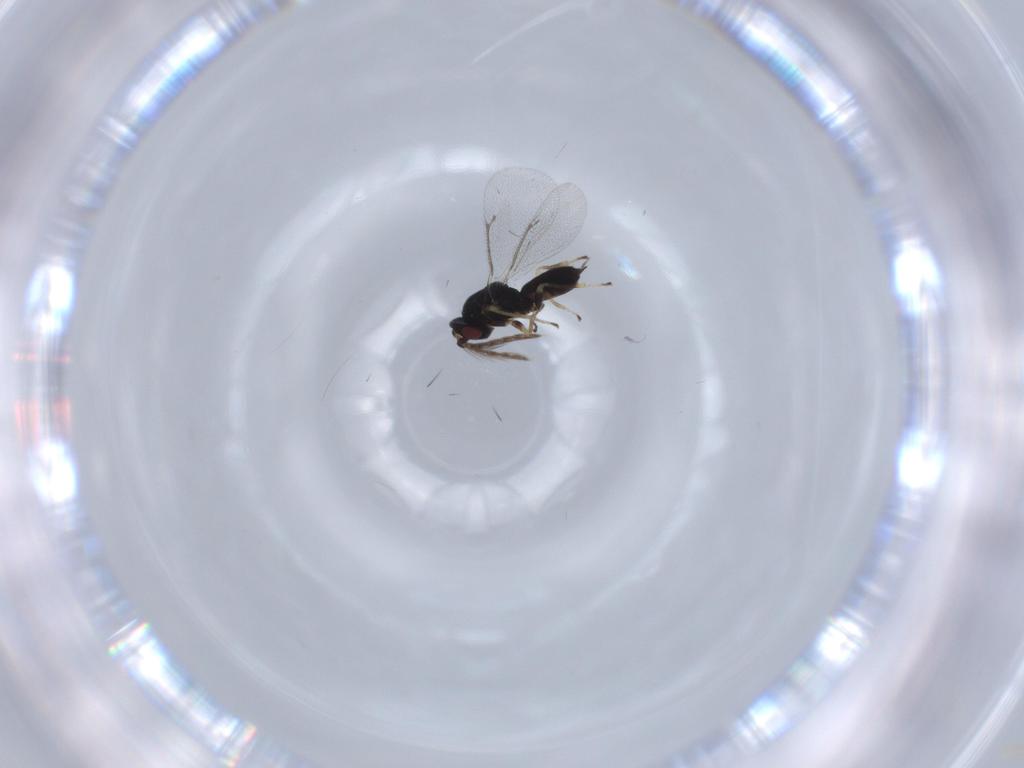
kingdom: Animalia
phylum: Arthropoda
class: Insecta
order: Hymenoptera
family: Eulophidae
